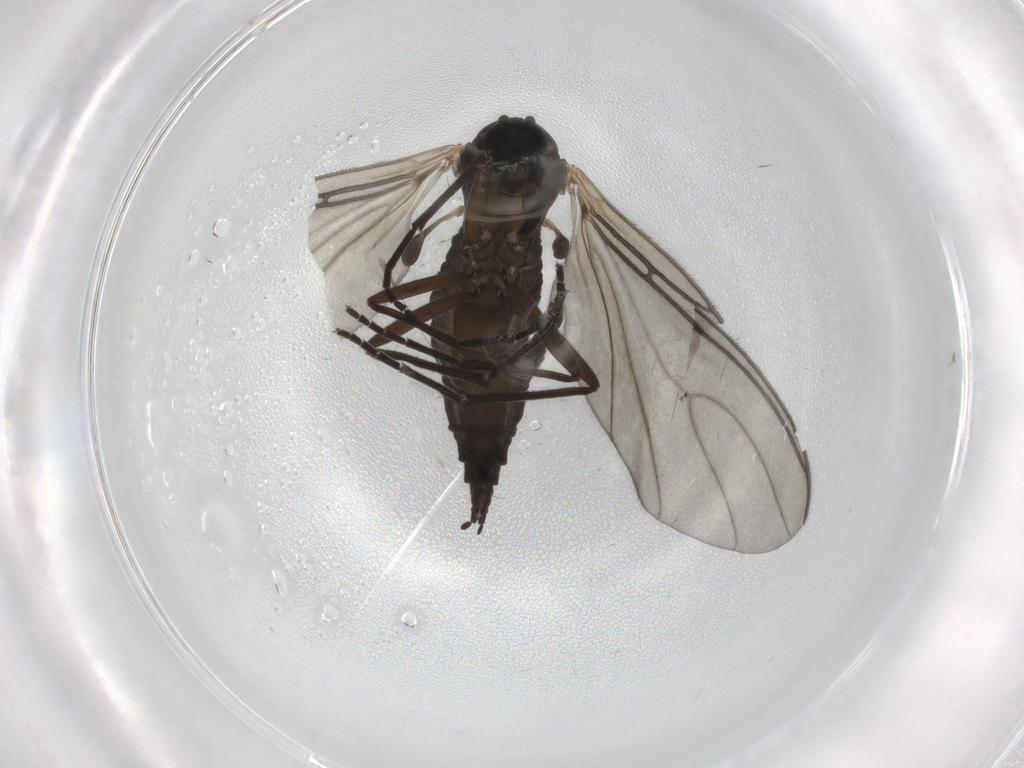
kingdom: Animalia
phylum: Arthropoda
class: Insecta
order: Diptera
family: Sciaridae
